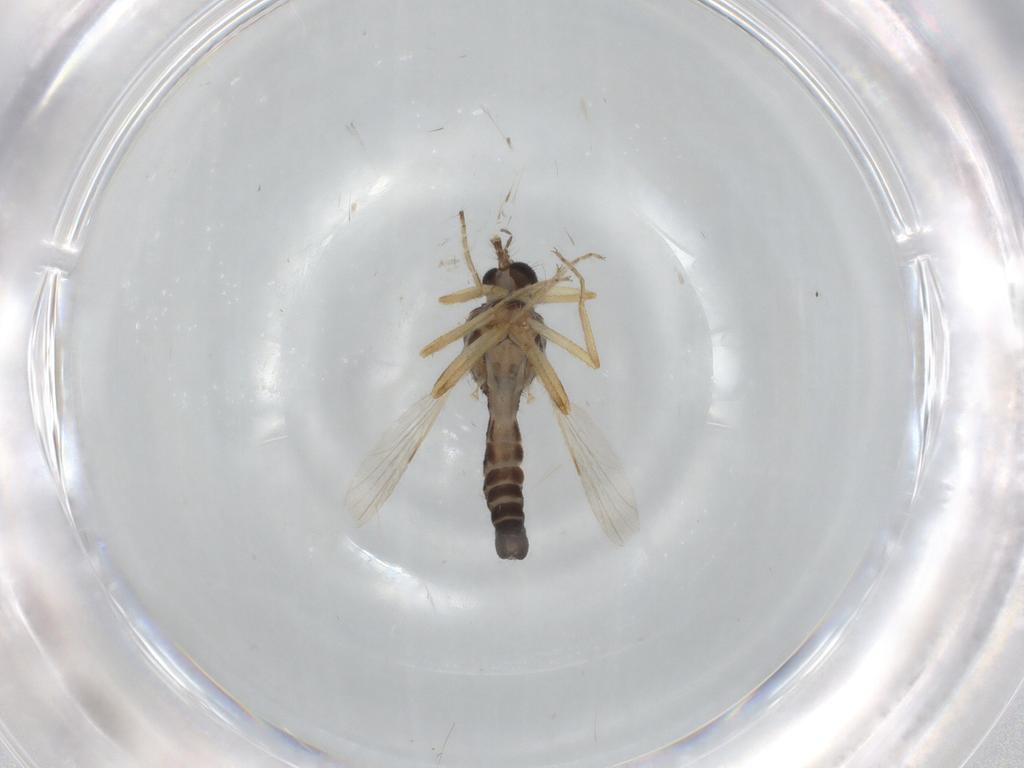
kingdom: Animalia
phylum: Arthropoda
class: Insecta
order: Diptera
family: Ceratopogonidae
